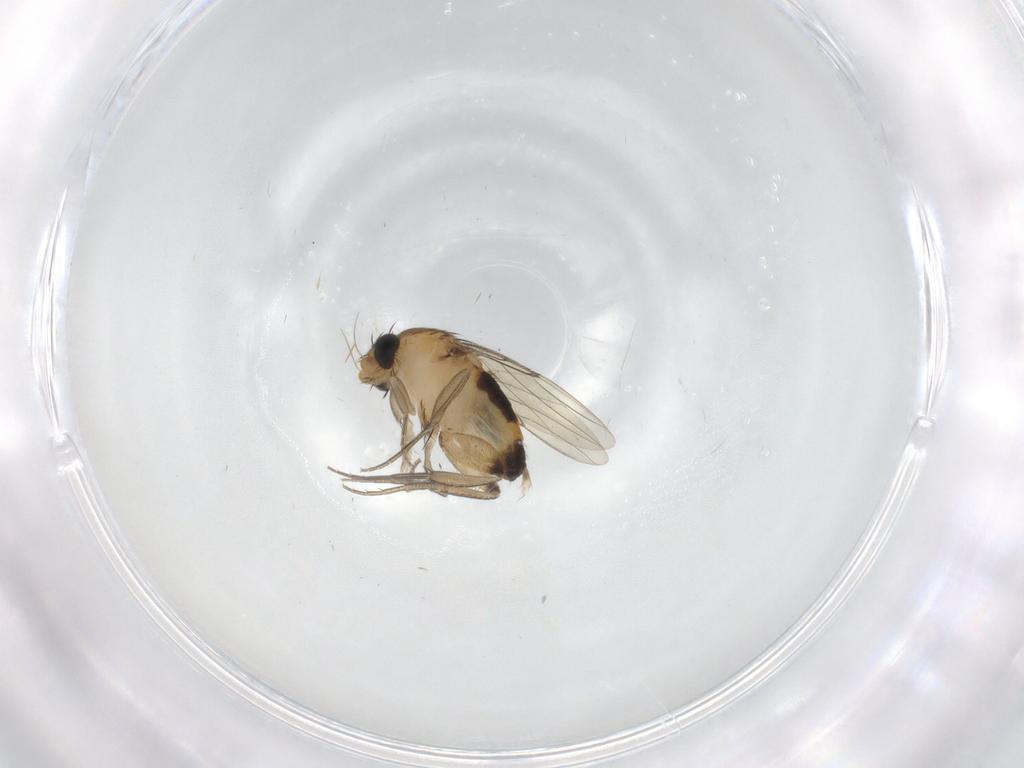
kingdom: Animalia
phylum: Arthropoda
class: Insecta
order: Diptera
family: Phoridae
